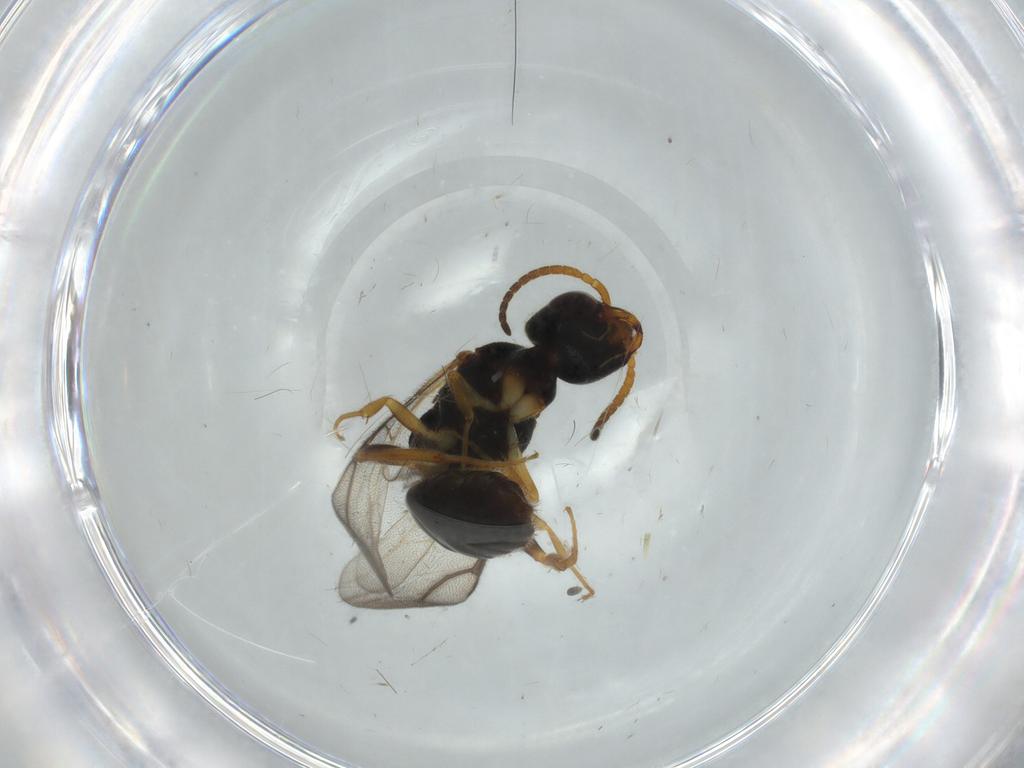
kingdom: Animalia
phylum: Arthropoda
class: Insecta
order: Hymenoptera
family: Bethylidae
